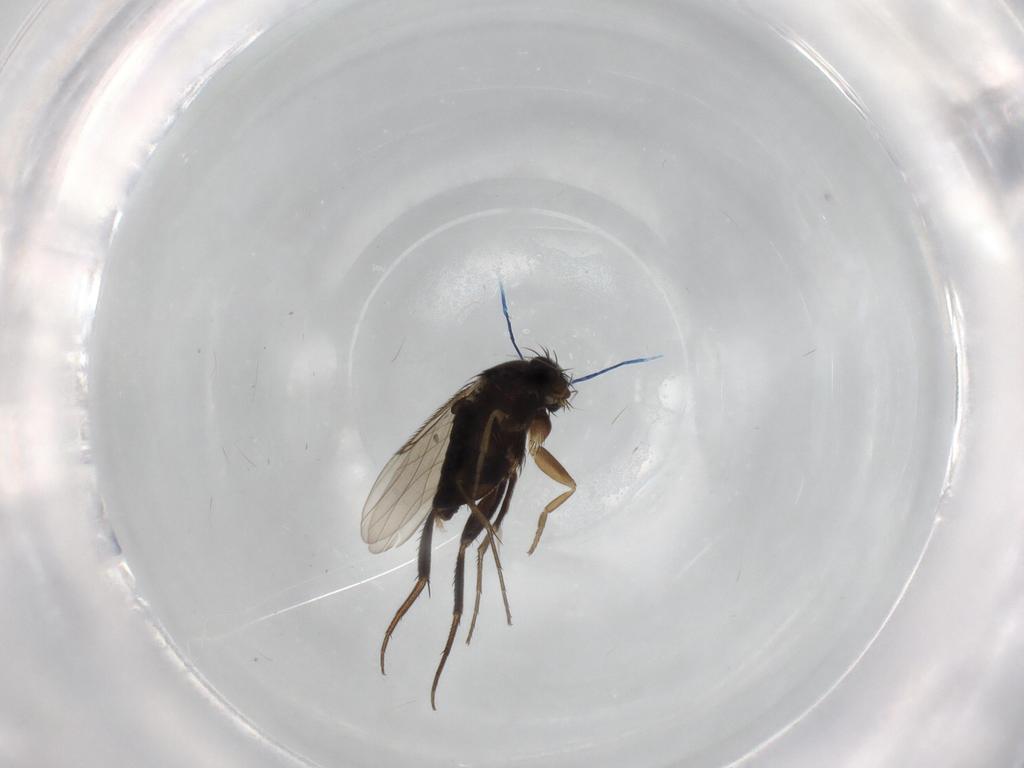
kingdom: Animalia
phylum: Arthropoda
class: Insecta
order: Diptera
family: Phoridae
